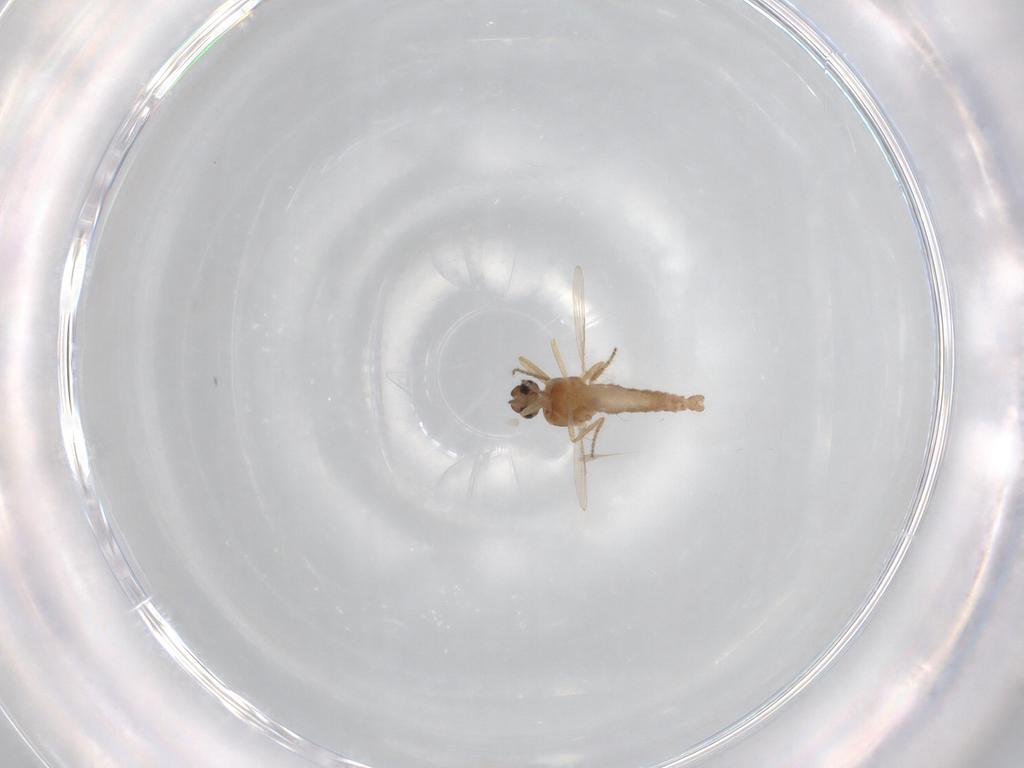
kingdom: Animalia
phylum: Arthropoda
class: Insecta
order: Diptera
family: Ceratopogonidae
